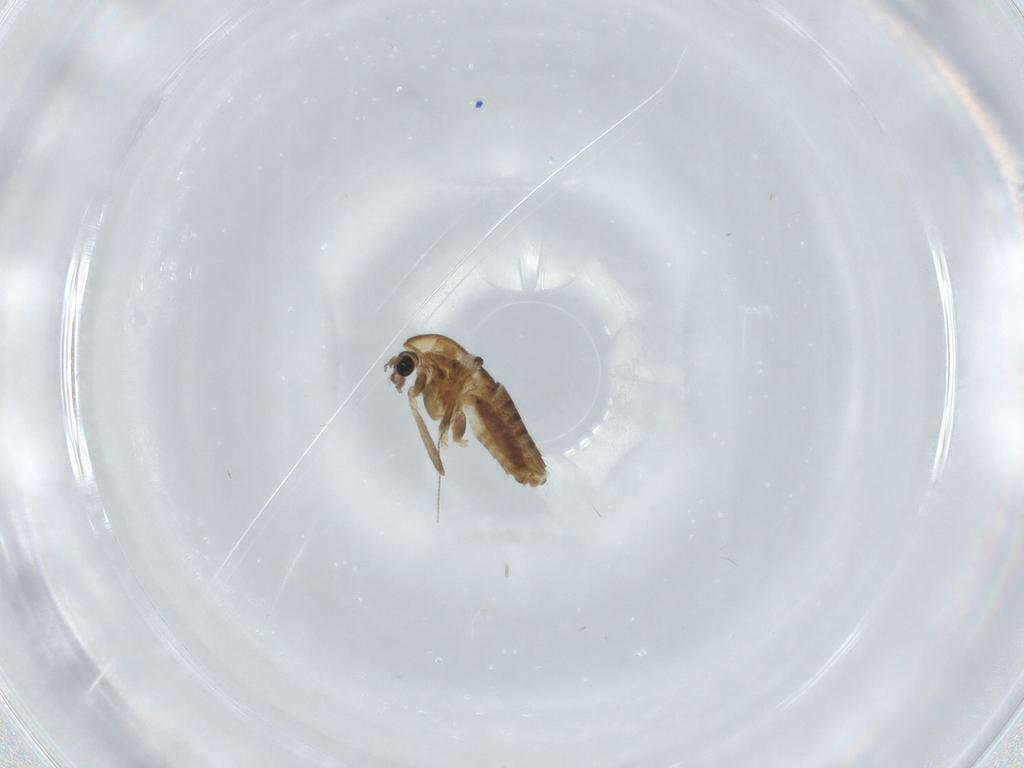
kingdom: Animalia
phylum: Arthropoda
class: Insecta
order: Diptera
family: Chironomidae
